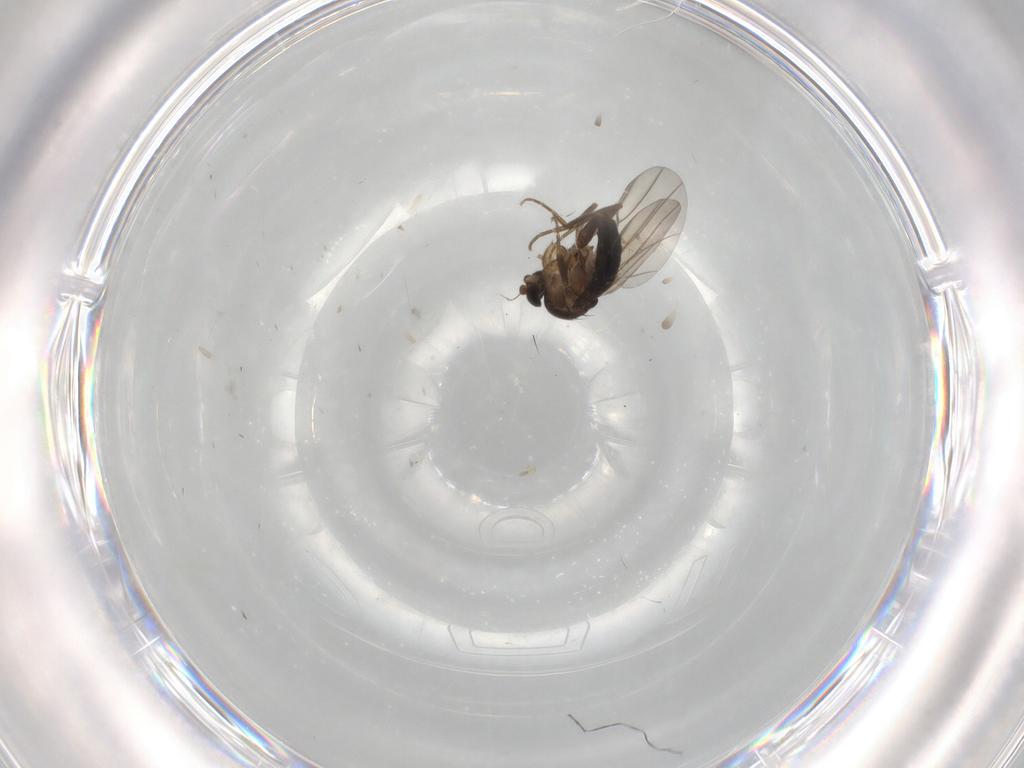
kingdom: Animalia
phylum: Arthropoda
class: Insecta
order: Diptera
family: Phoridae
